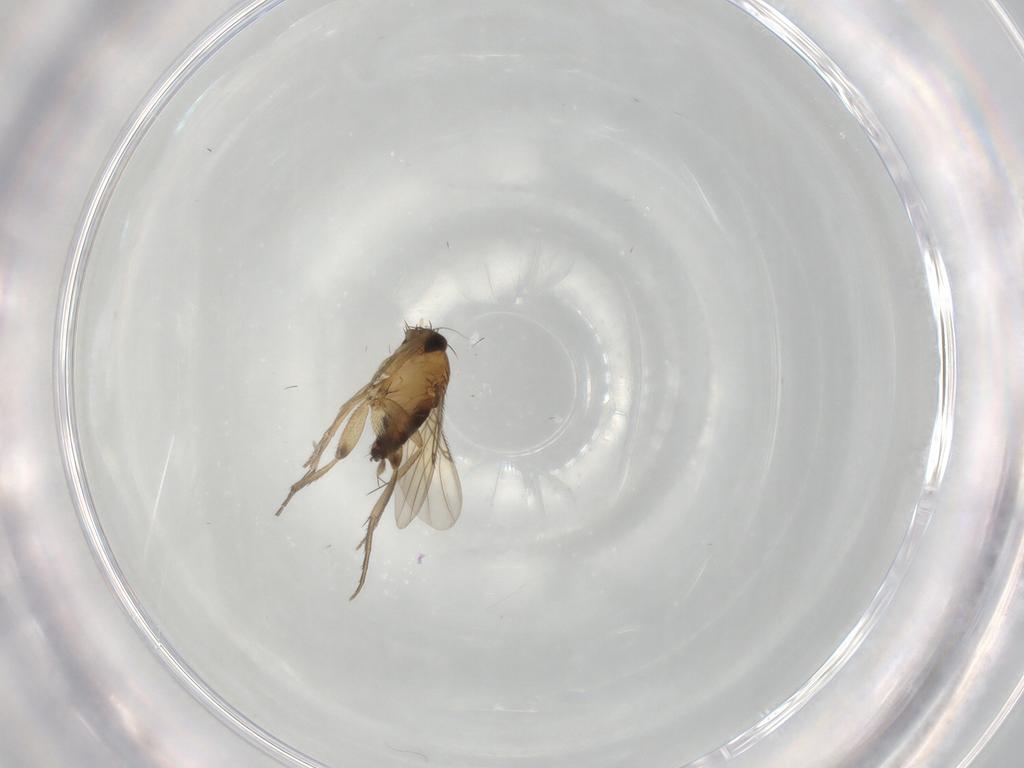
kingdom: Animalia
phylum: Arthropoda
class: Insecta
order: Diptera
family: Phoridae
